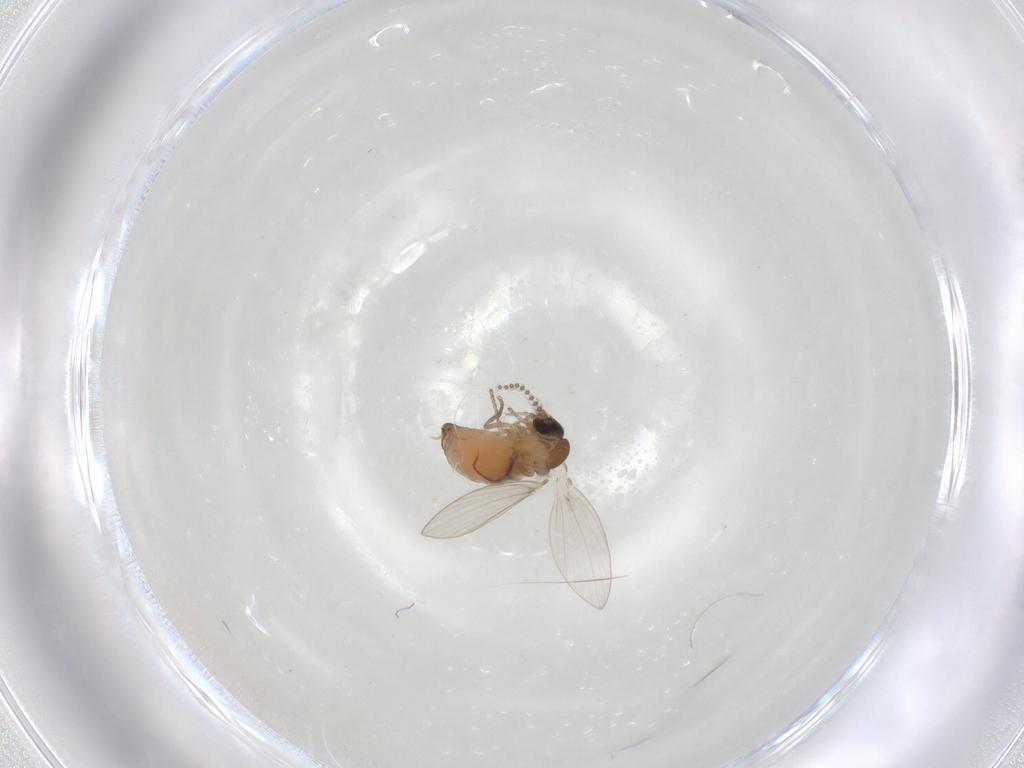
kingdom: Animalia
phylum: Arthropoda
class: Insecta
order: Diptera
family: Psychodidae
